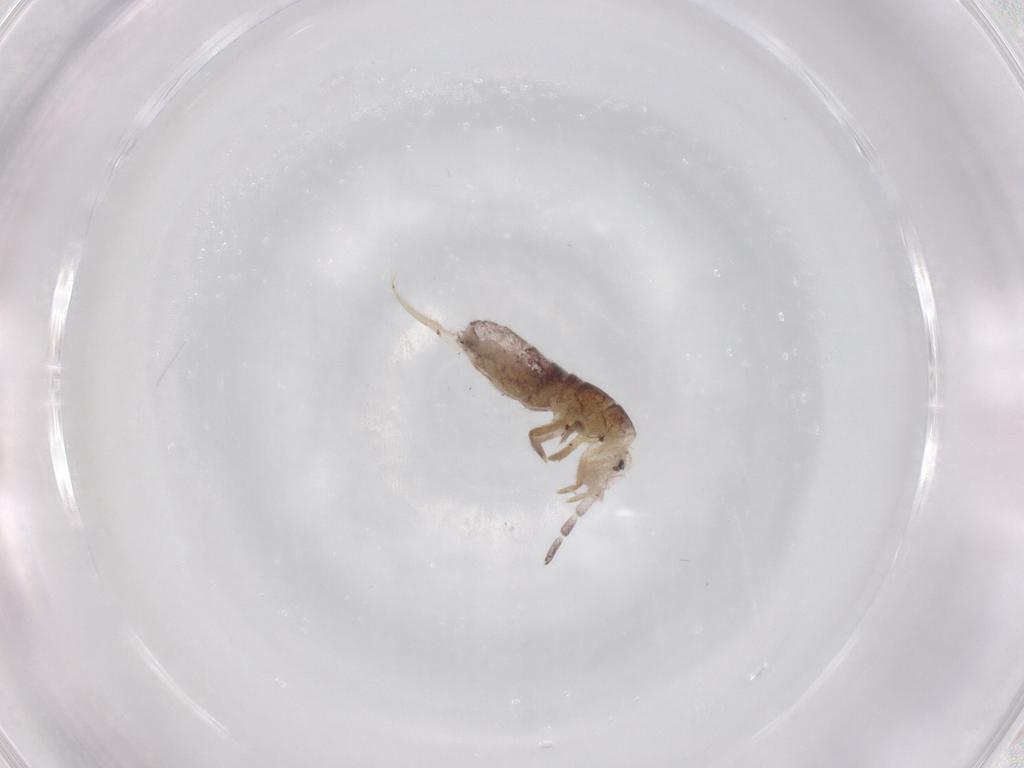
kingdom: Animalia
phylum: Arthropoda
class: Collembola
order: Entomobryomorpha
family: Isotomidae
